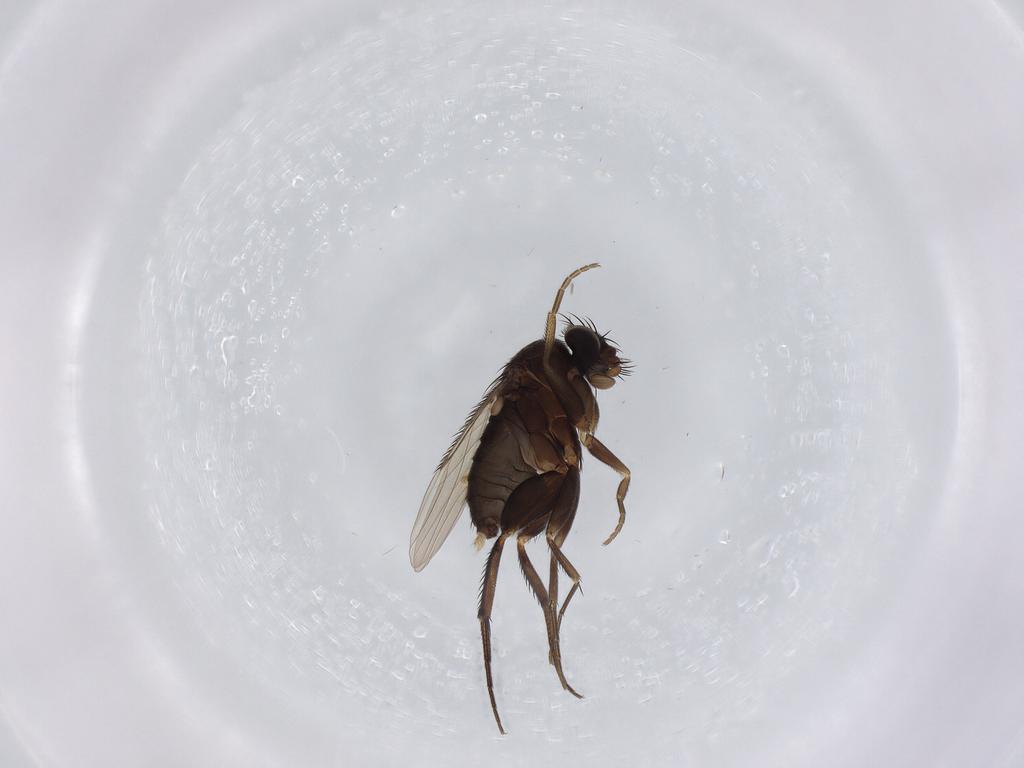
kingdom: Animalia
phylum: Arthropoda
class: Insecta
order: Diptera
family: Phoridae
